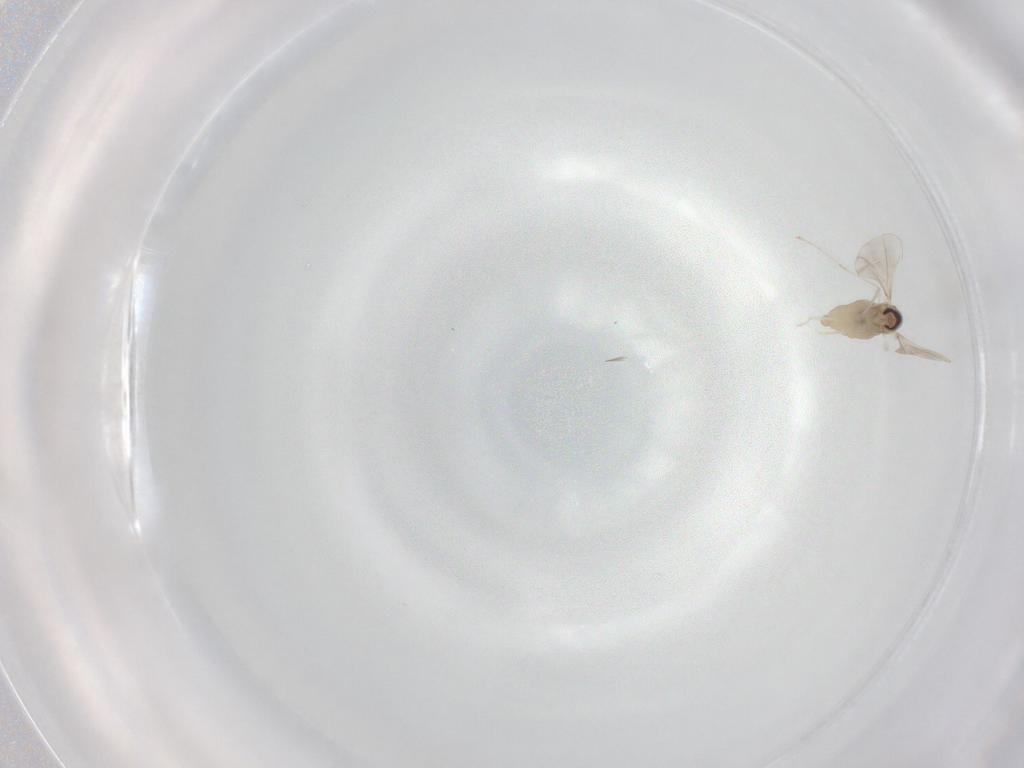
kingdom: Animalia
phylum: Arthropoda
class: Insecta
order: Diptera
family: Cecidomyiidae
